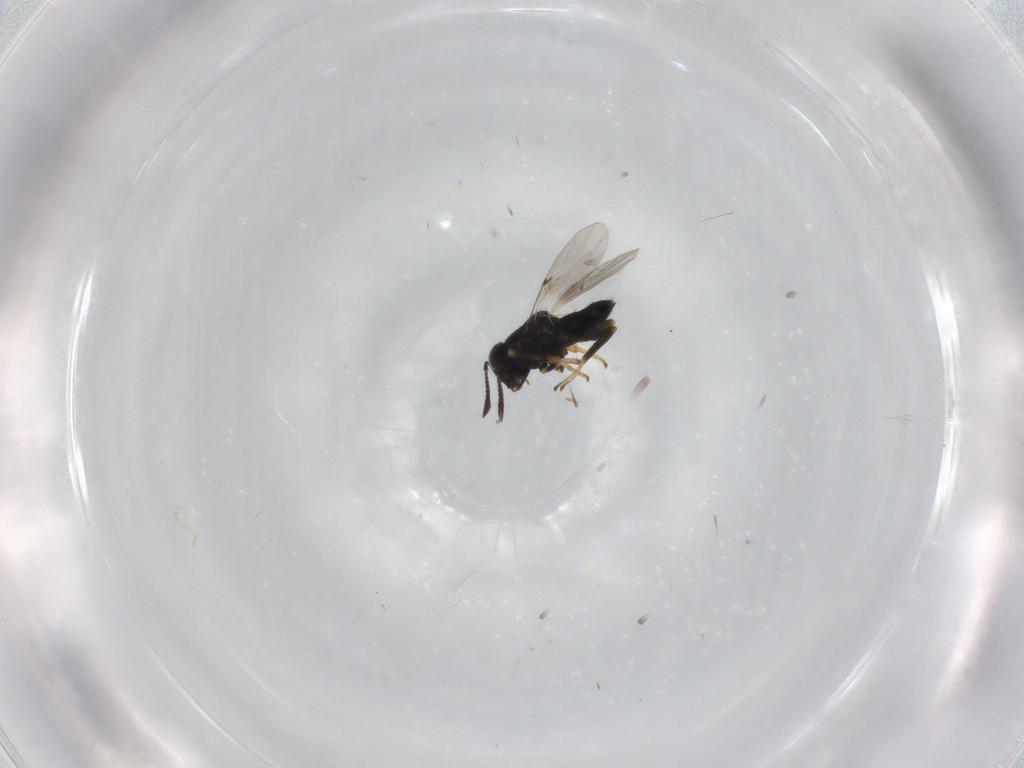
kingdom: Animalia
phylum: Arthropoda
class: Insecta
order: Hymenoptera
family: Encyrtidae
